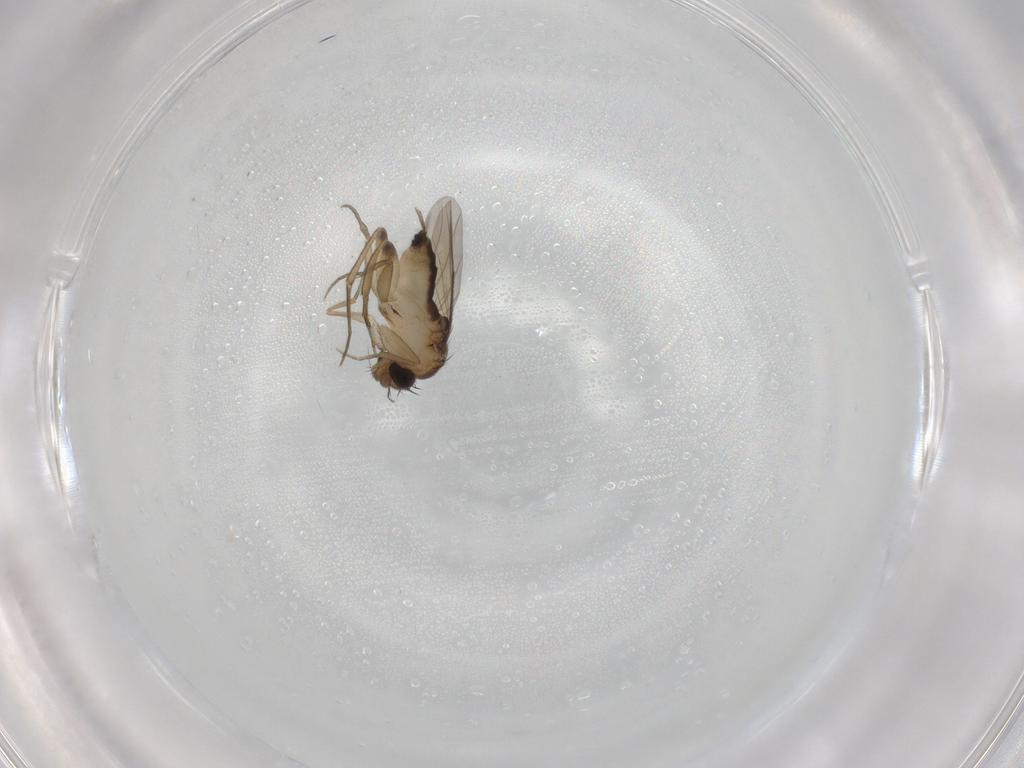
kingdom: Animalia
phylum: Arthropoda
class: Insecta
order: Diptera
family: Phoridae
